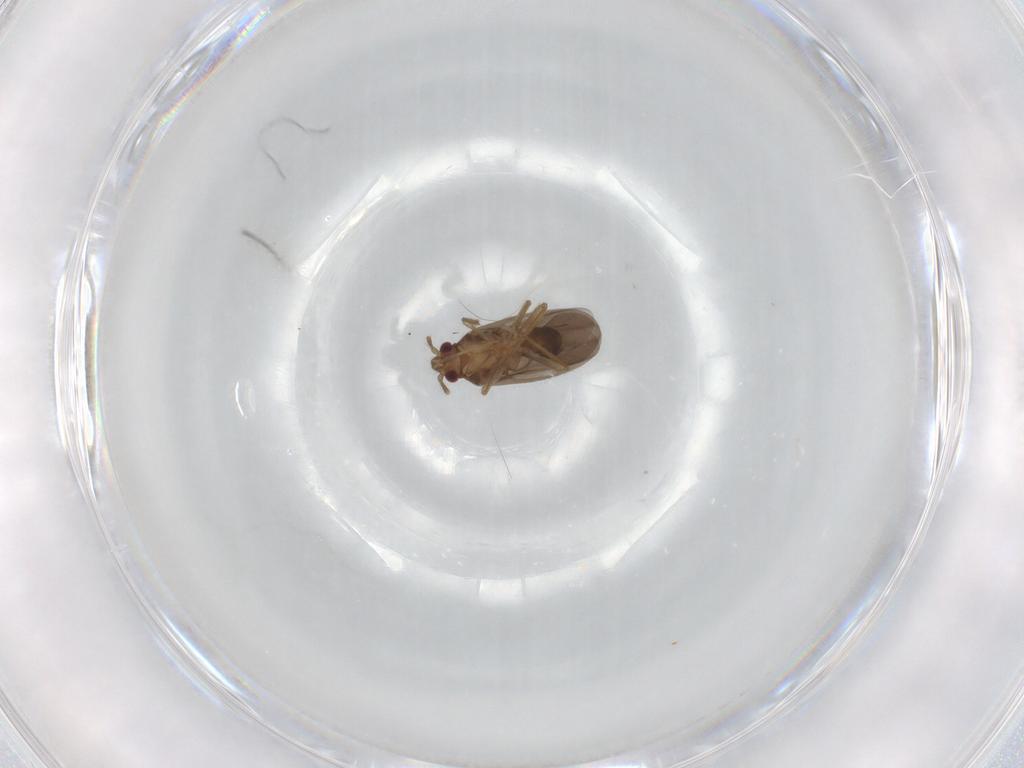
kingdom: Animalia
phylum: Arthropoda
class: Insecta
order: Hemiptera
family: Ceratocombidae
